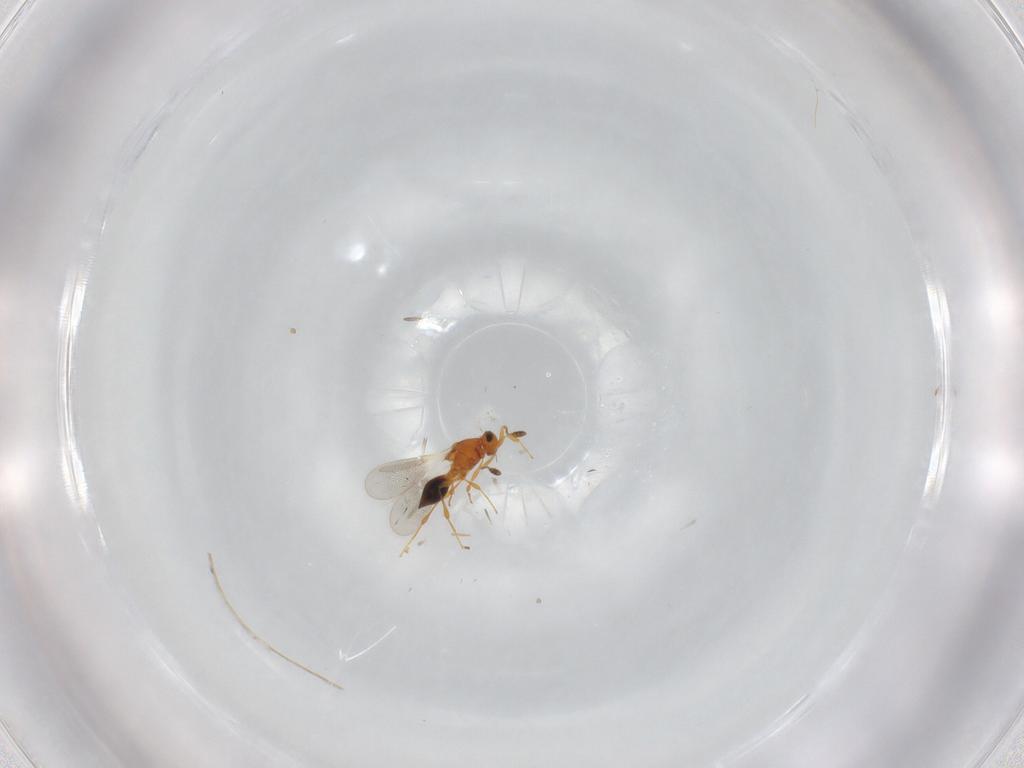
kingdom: Animalia
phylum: Arthropoda
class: Insecta
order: Hymenoptera
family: Platygastridae
